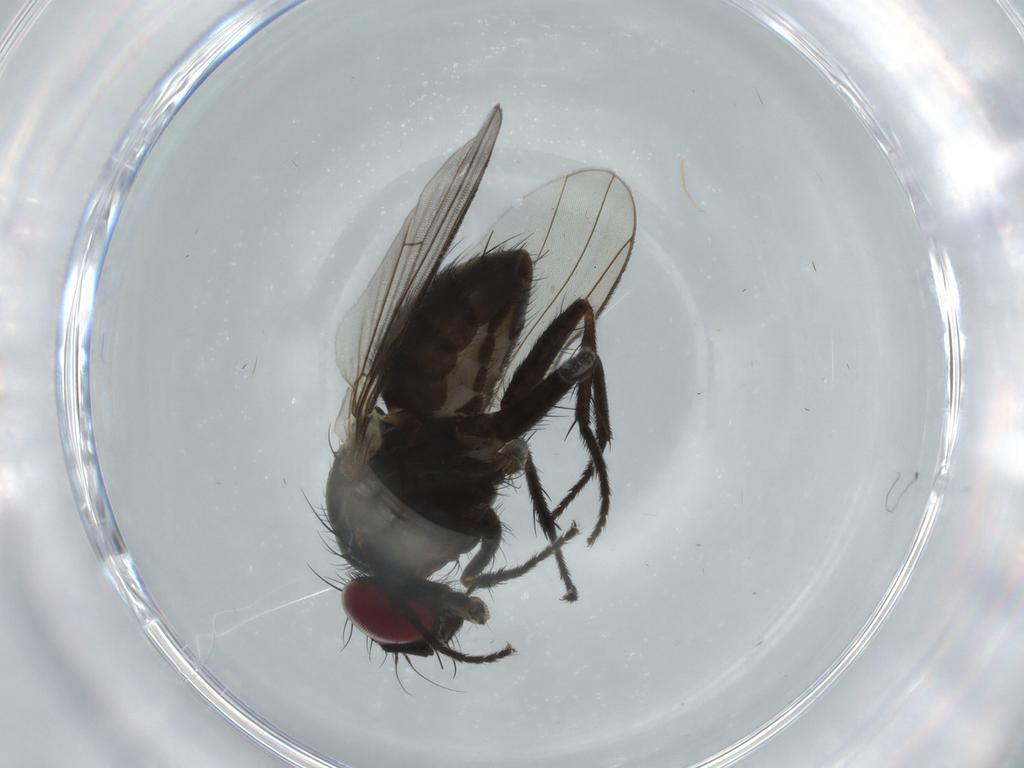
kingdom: Animalia
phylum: Arthropoda
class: Insecta
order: Diptera
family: Muscidae
